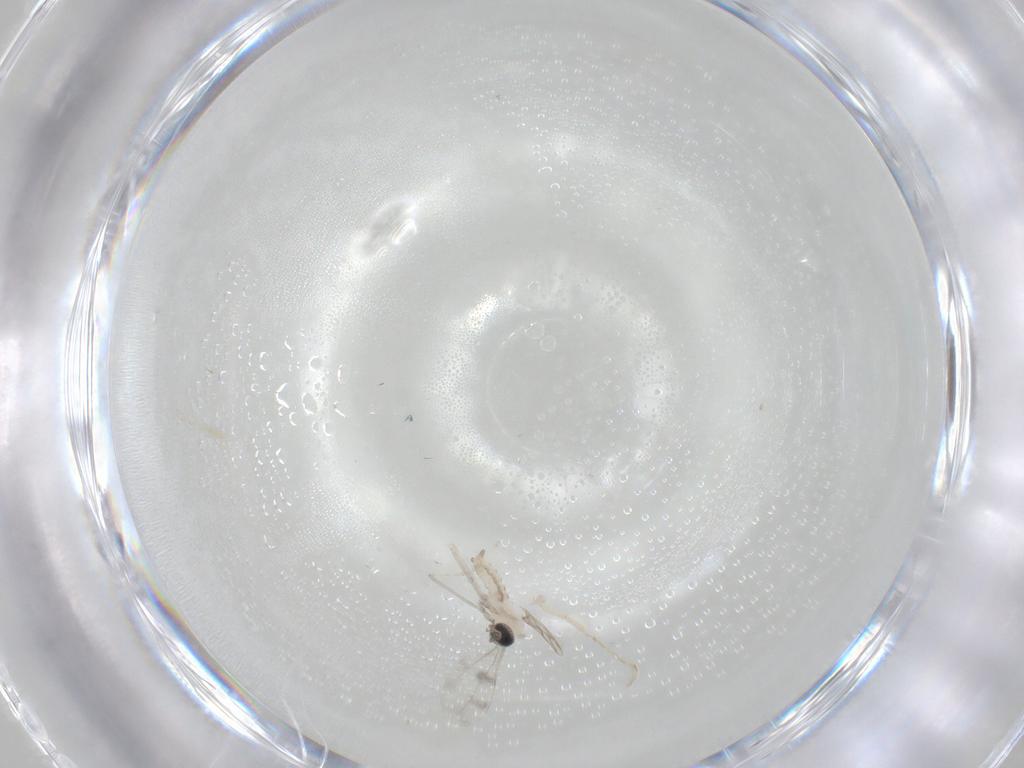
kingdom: Animalia
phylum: Arthropoda
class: Insecta
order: Diptera
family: Cecidomyiidae
